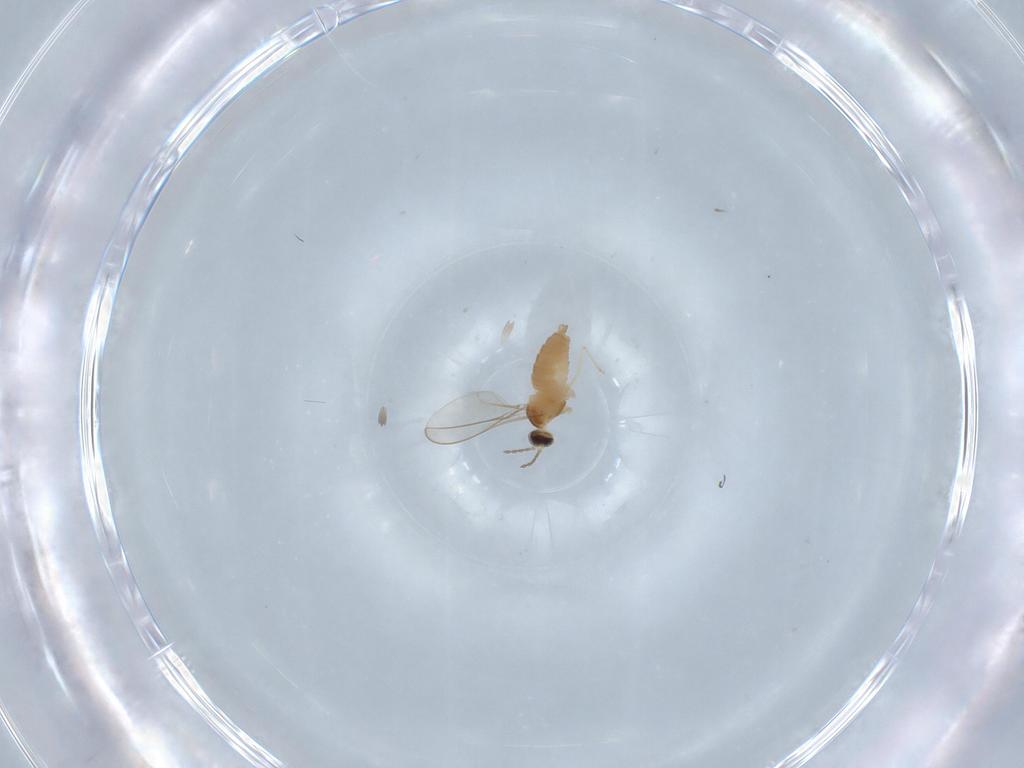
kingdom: Animalia
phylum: Arthropoda
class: Insecta
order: Diptera
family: Cecidomyiidae
